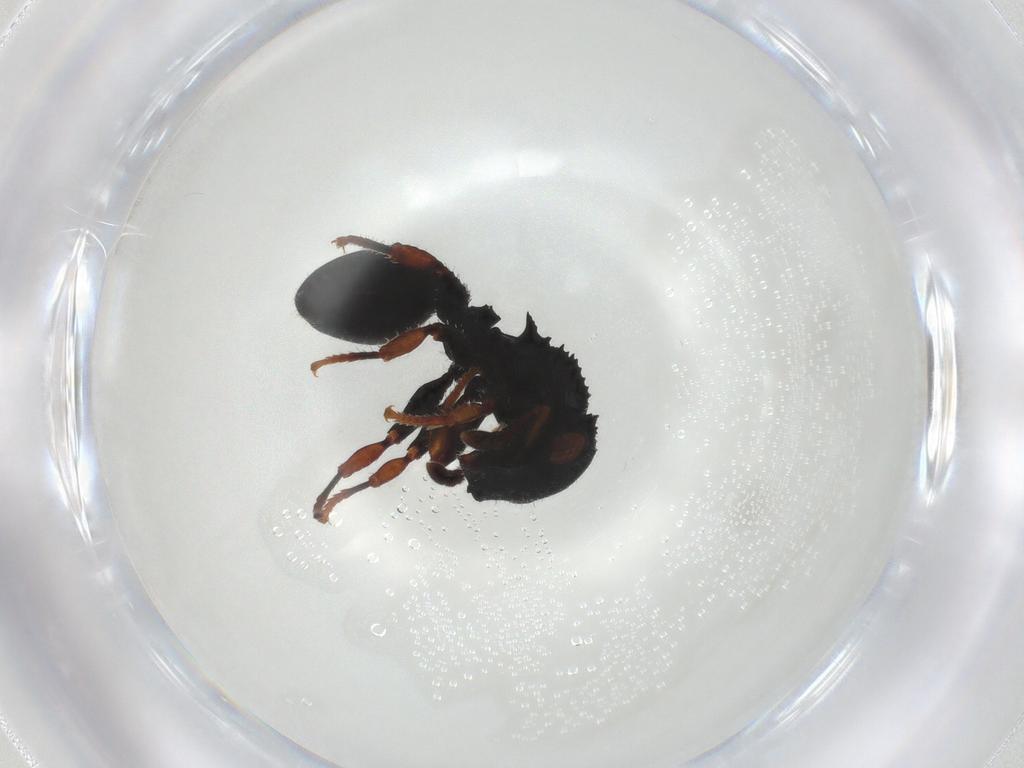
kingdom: Animalia
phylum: Arthropoda
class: Insecta
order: Hymenoptera
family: Formicidae
